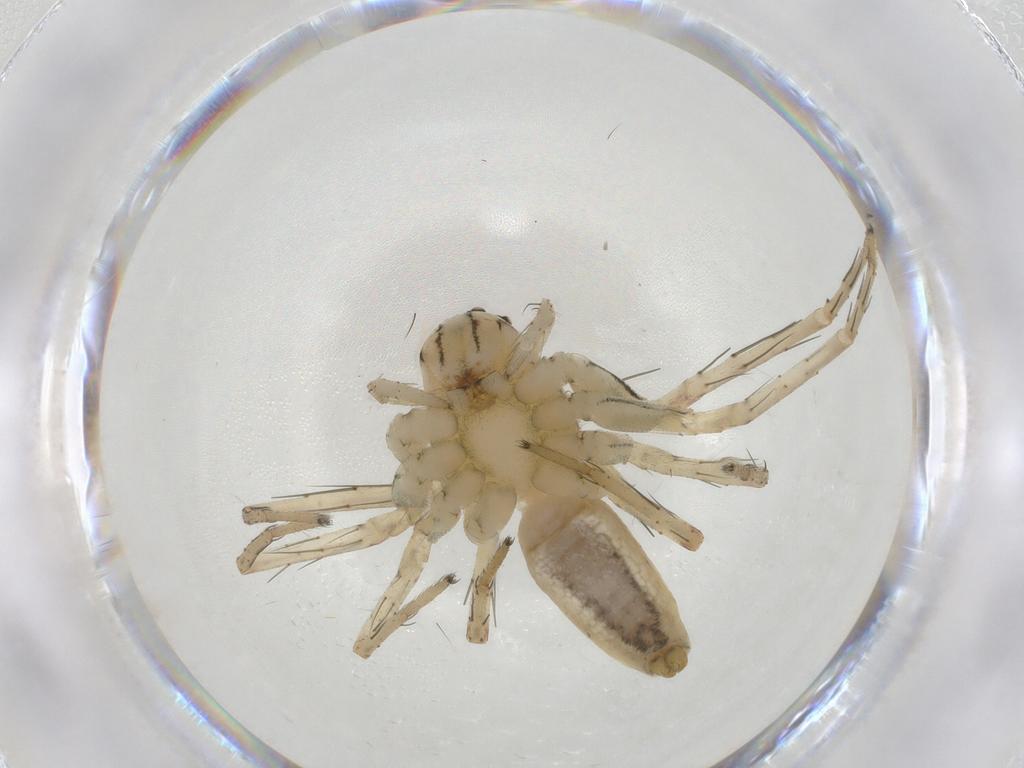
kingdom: Animalia
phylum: Arthropoda
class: Arachnida
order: Araneae
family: Oxyopidae
